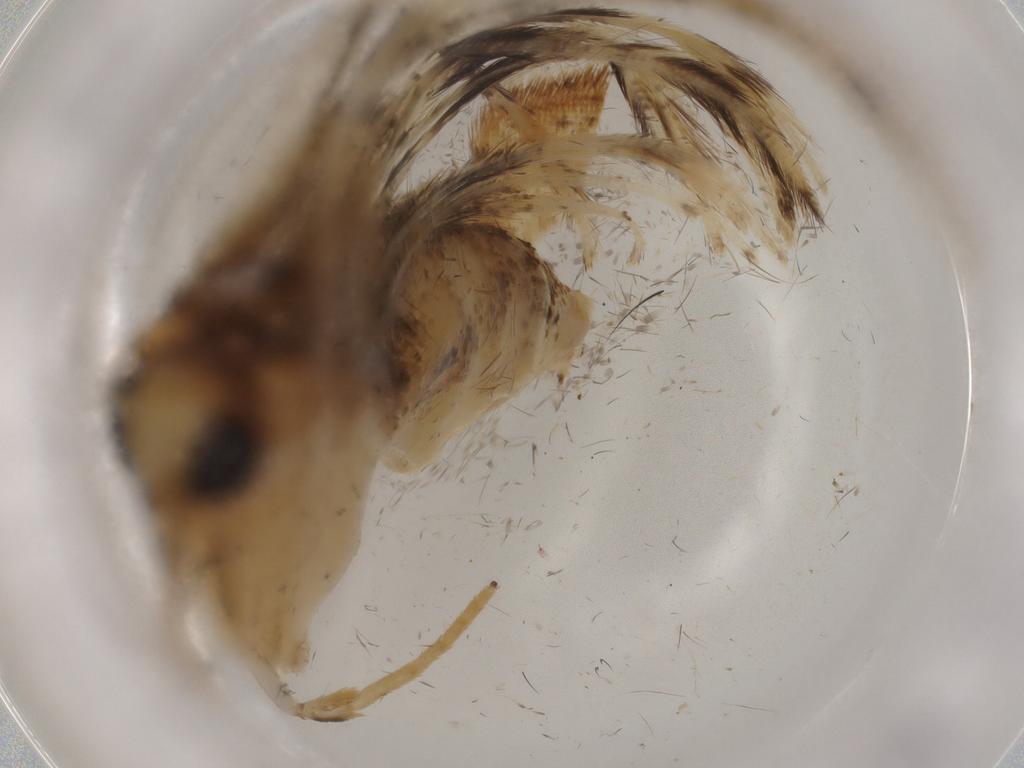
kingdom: Animalia
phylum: Arthropoda
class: Insecta
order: Lepidoptera
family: Gelechiidae
